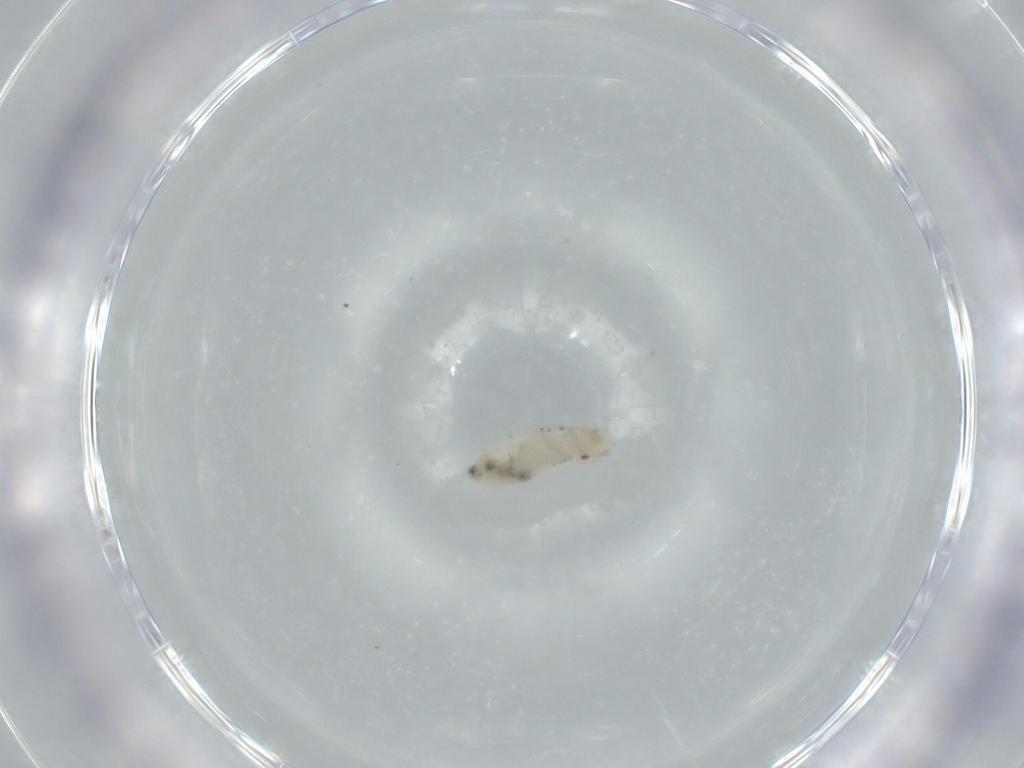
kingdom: Animalia
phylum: Arthropoda
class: Insecta
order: Psocodea
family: Caeciliusidae
